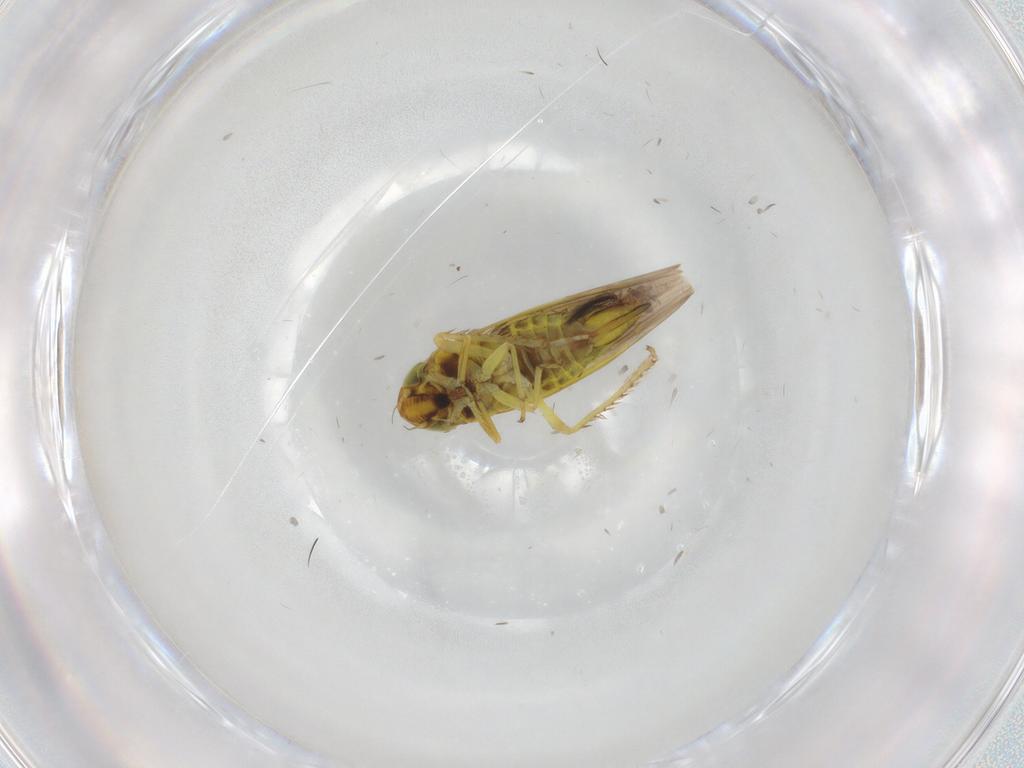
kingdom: Animalia
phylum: Arthropoda
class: Insecta
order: Hemiptera
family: Cicadellidae
